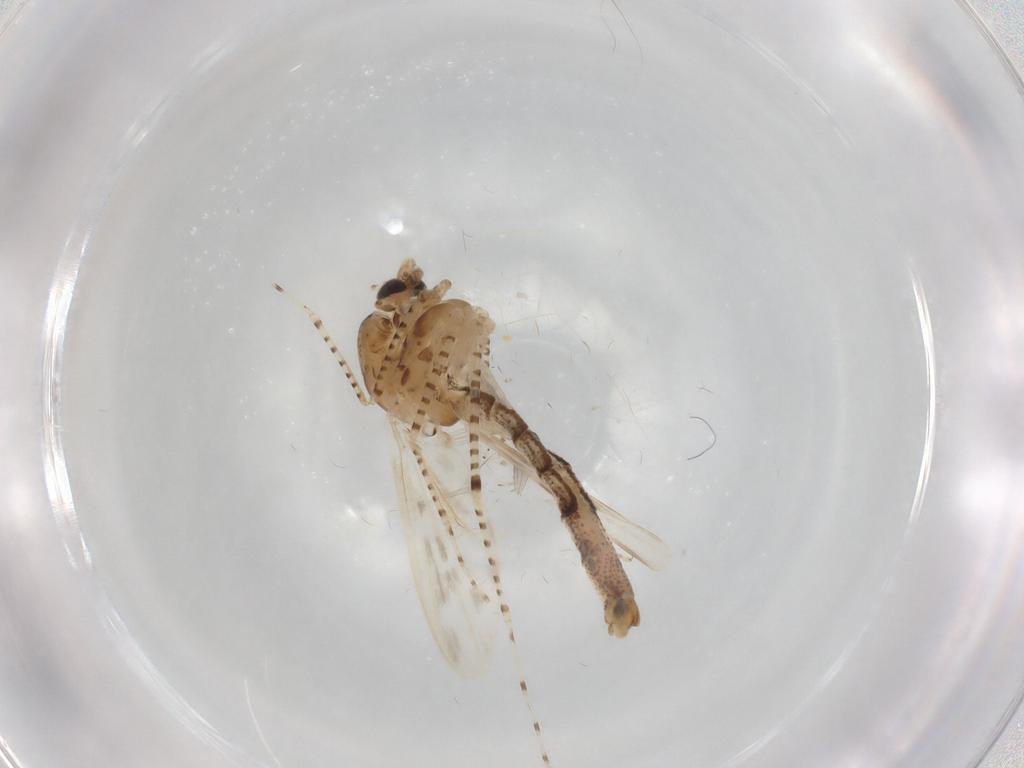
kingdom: Animalia
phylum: Arthropoda
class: Insecta
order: Diptera
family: Chaoboridae
